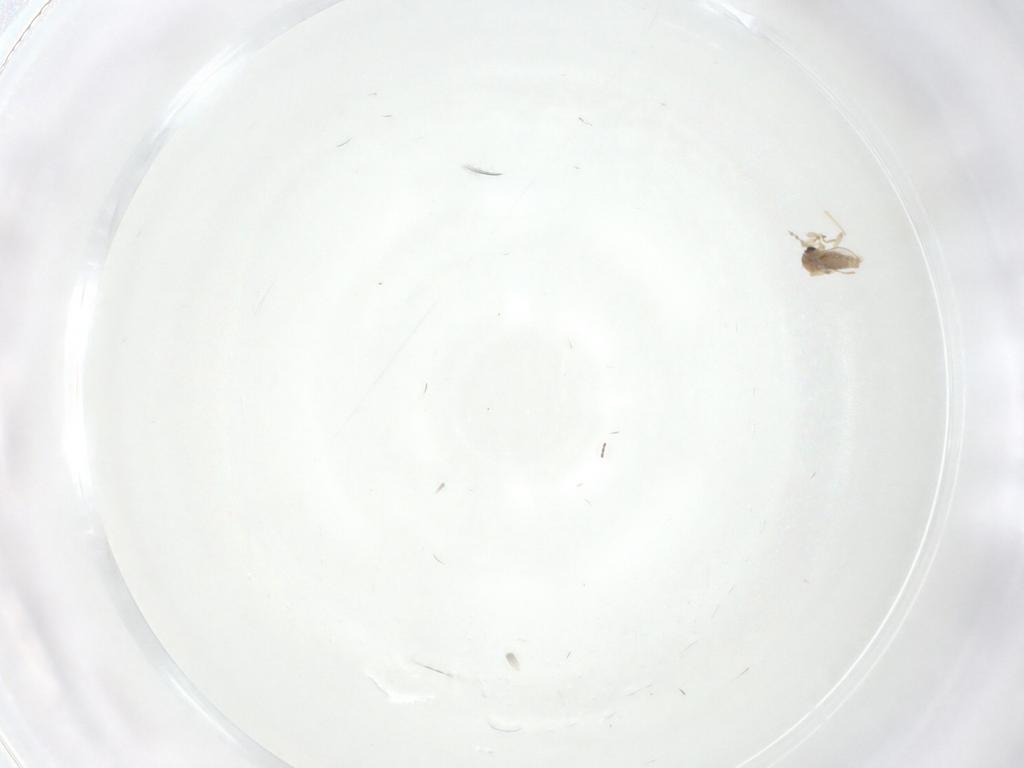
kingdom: Animalia
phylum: Arthropoda
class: Insecta
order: Diptera
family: Cecidomyiidae
